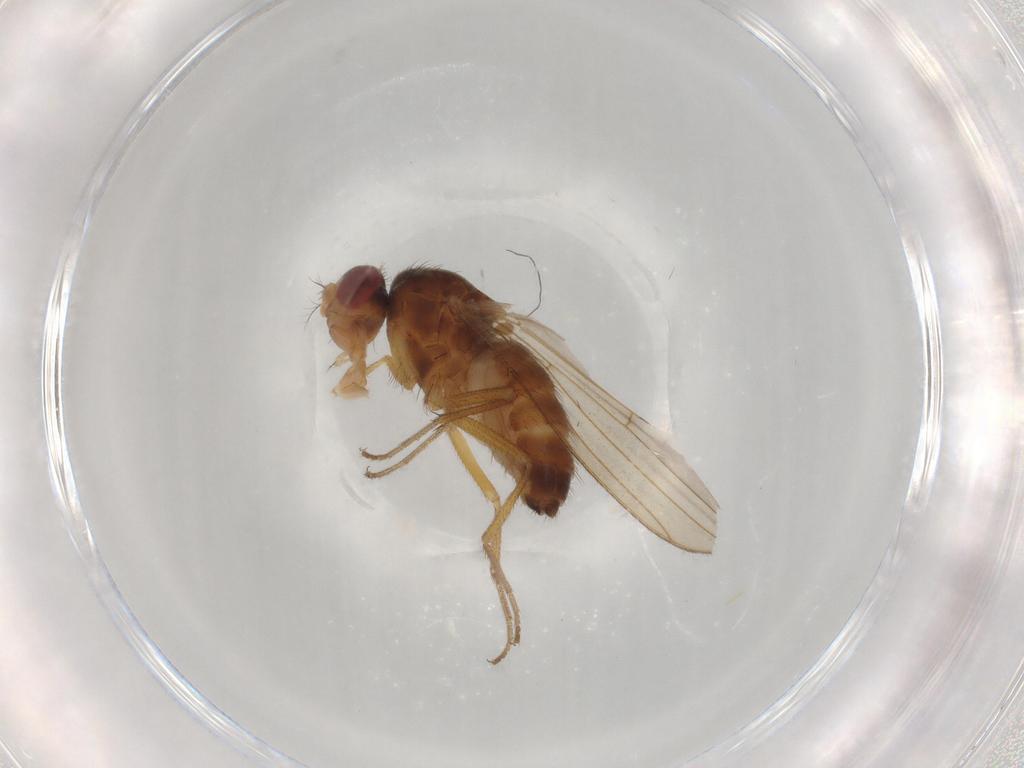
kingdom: Animalia
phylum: Arthropoda
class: Insecta
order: Diptera
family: Drosophilidae
